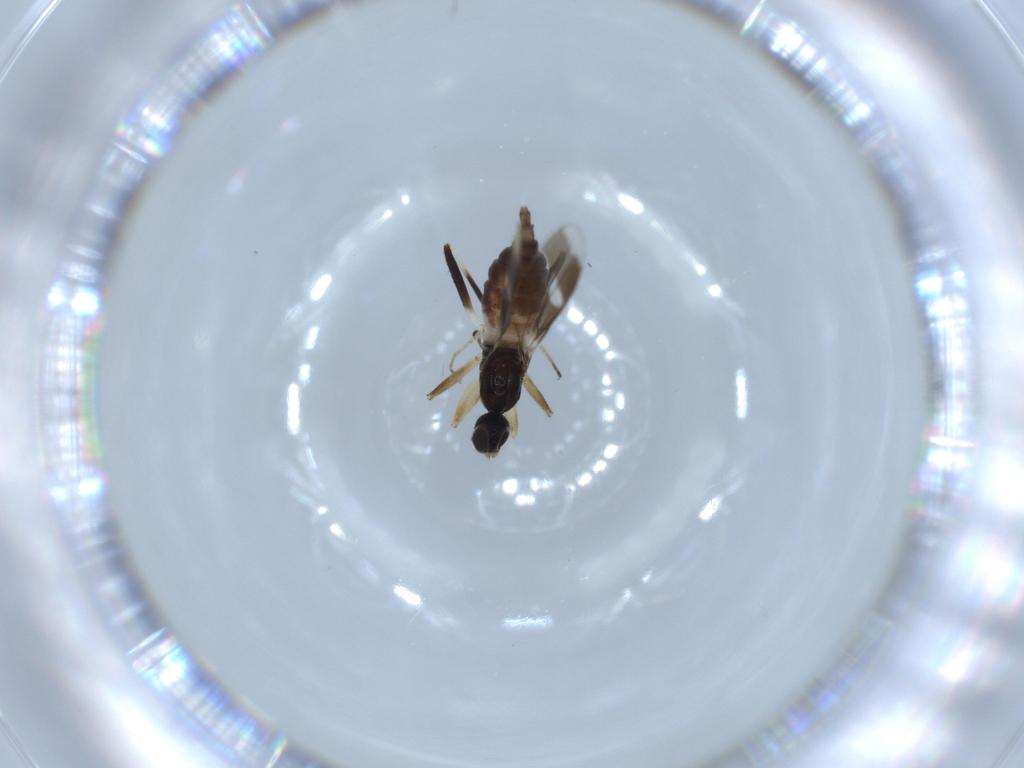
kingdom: Animalia
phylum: Arthropoda
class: Insecta
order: Diptera
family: Hybotidae
